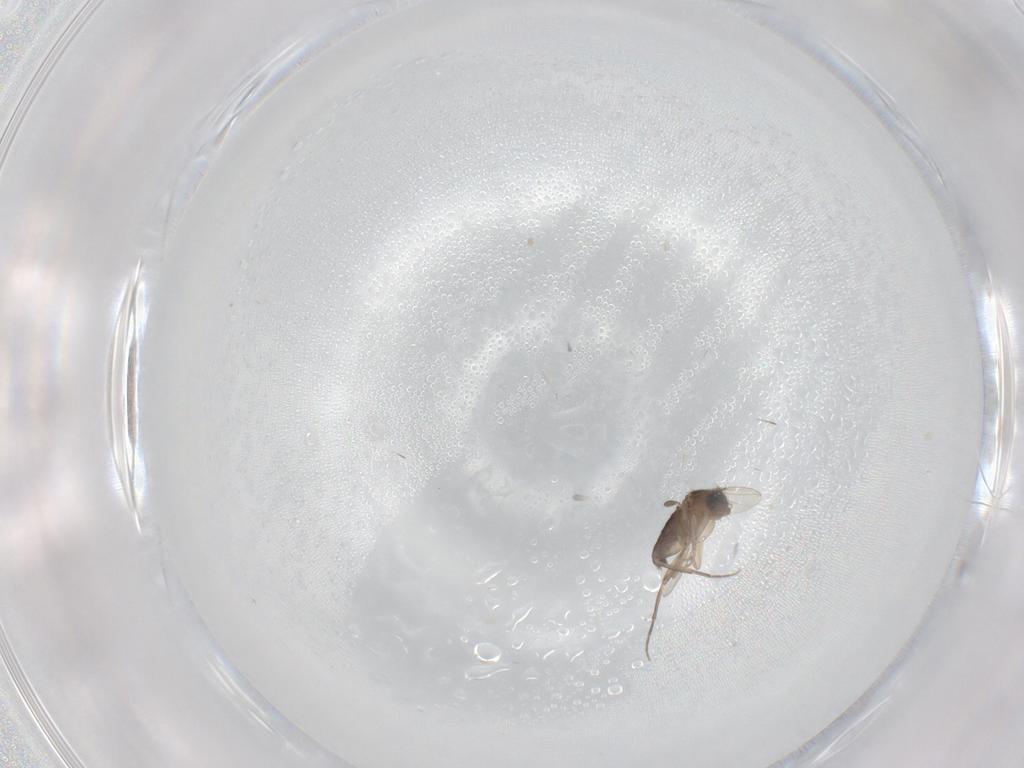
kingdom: Animalia
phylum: Arthropoda
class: Insecta
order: Diptera
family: Phoridae
